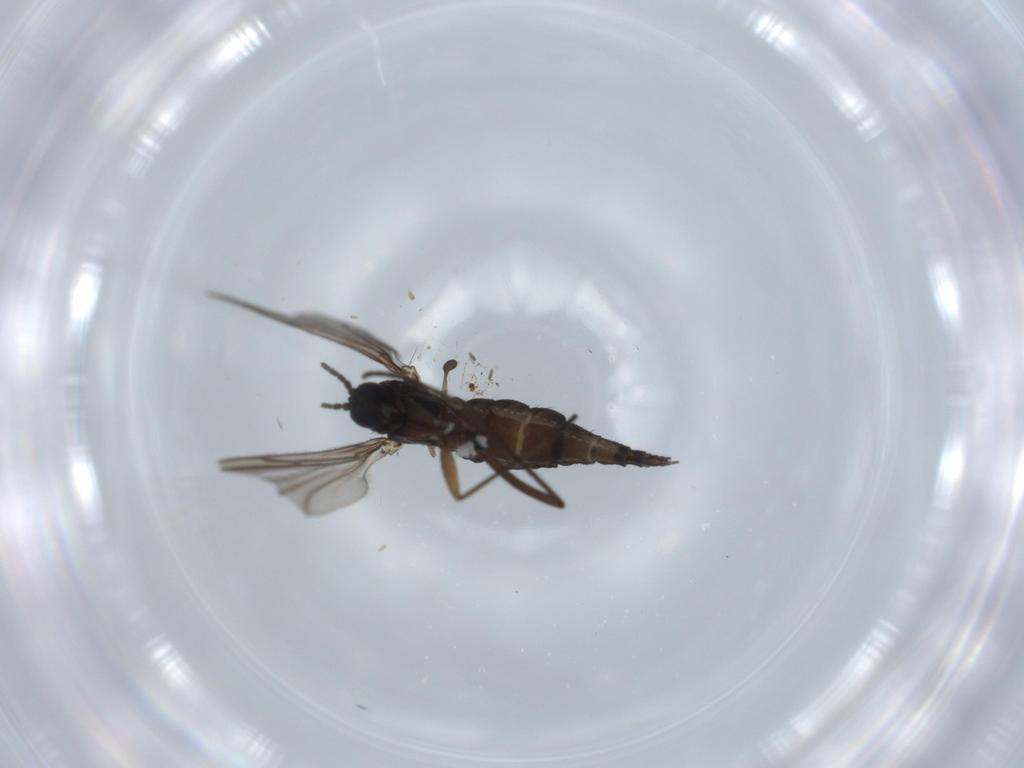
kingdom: Animalia
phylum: Arthropoda
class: Insecta
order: Diptera
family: Sciaridae
